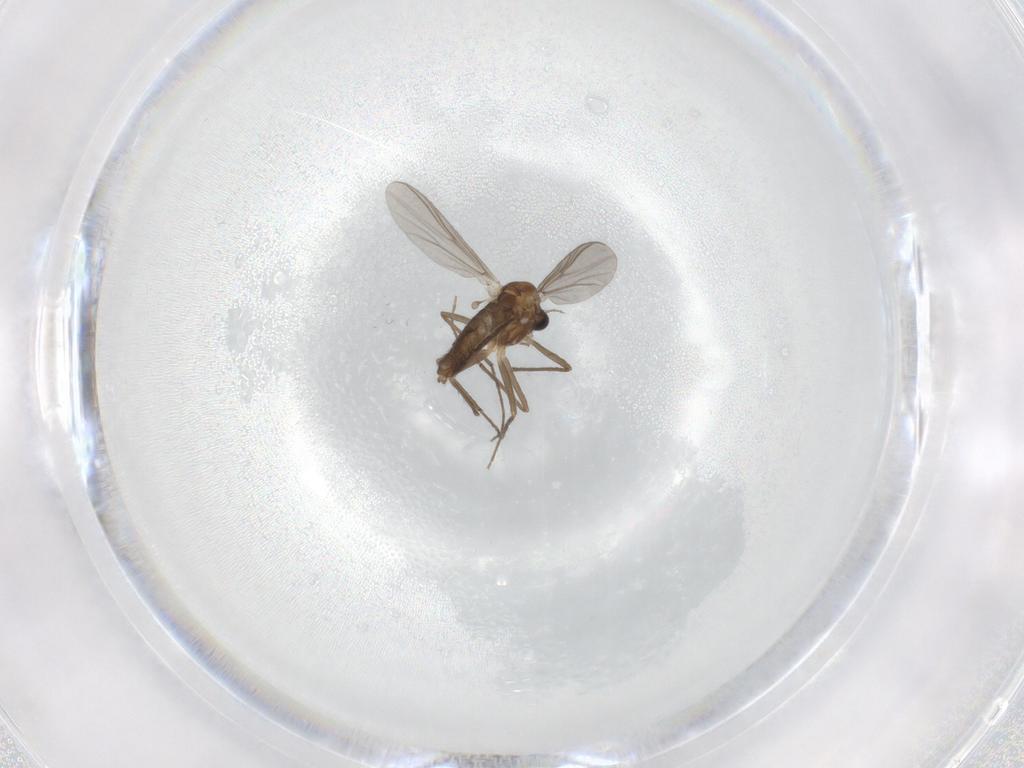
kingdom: Animalia
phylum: Arthropoda
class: Insecta
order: Diptera
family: Chironomidae
